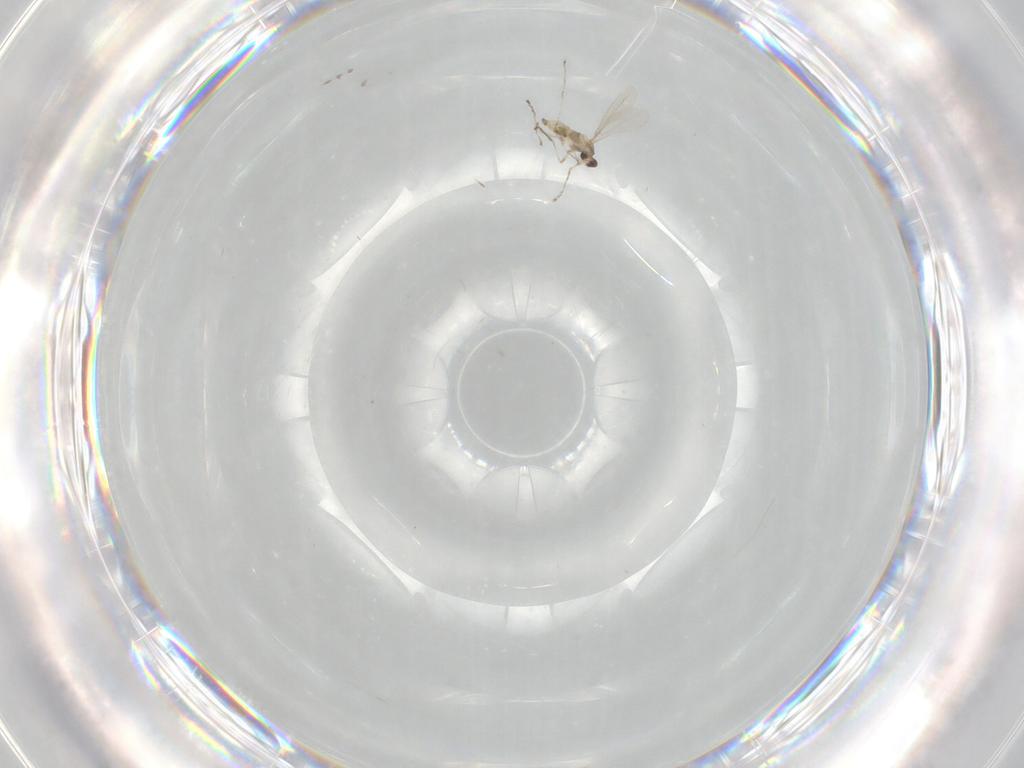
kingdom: Animalia
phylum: Arthropoda
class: Insecta
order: Diptera
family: Cecidomyiidae
